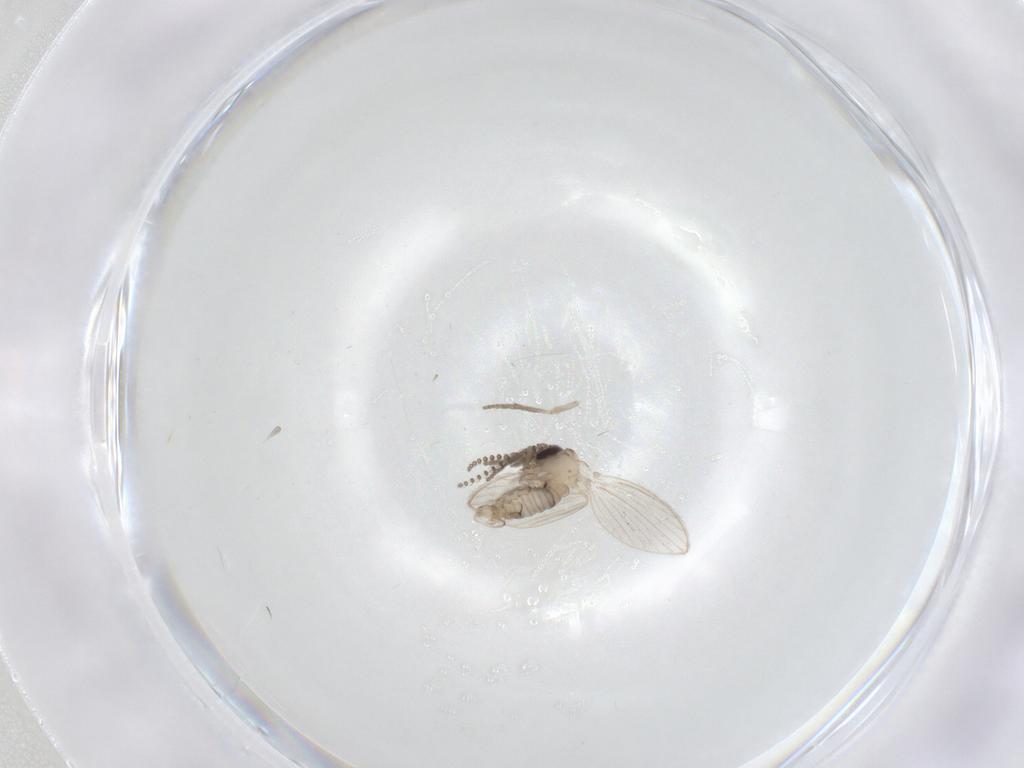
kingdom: Animalia
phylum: Arthropoda
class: Insecta
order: Diptera
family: Psychodidae
